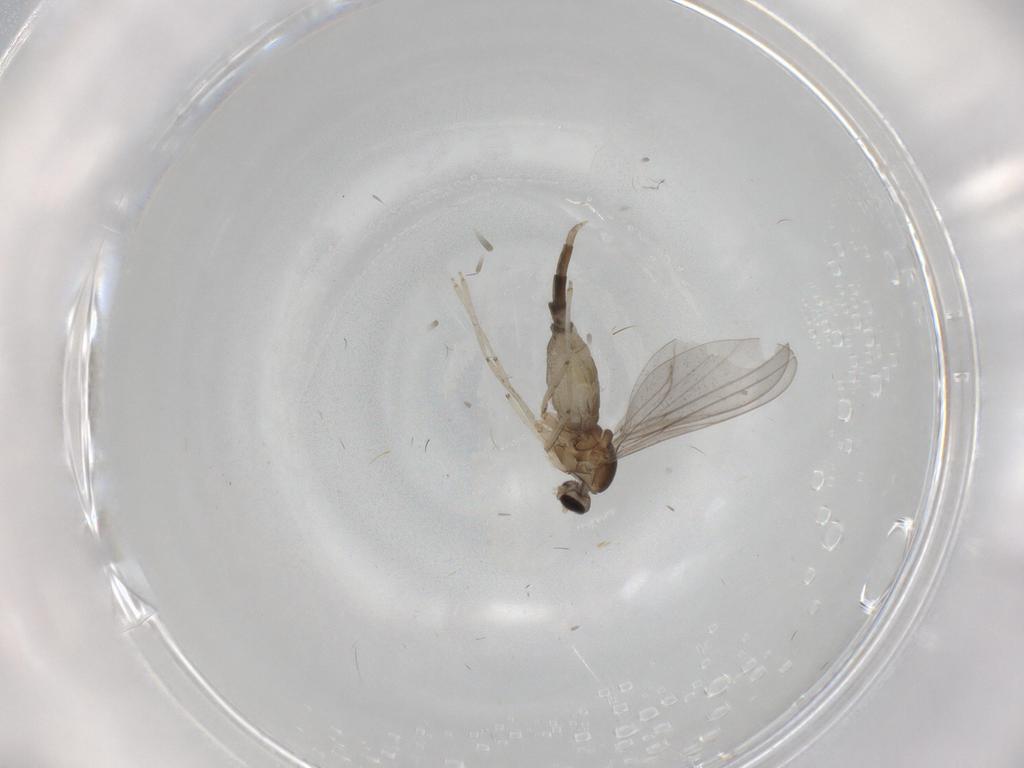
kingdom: Animalia
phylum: Arthropoda
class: Insecta
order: Diptera
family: Cecidomyiidae
